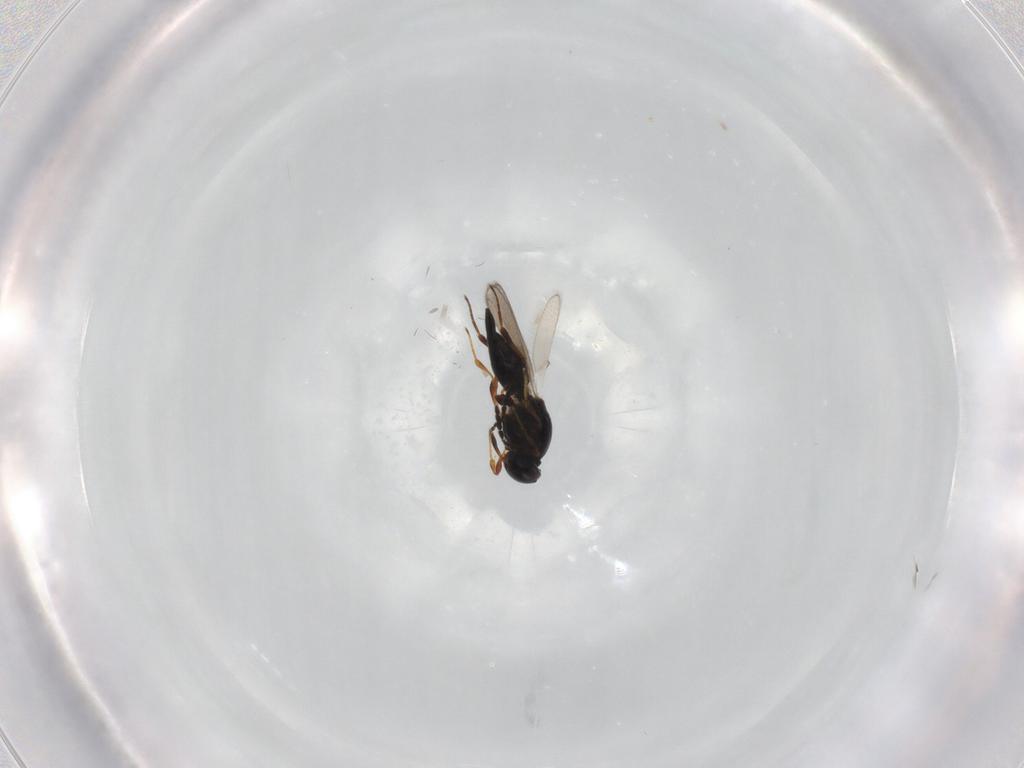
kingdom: Animalia
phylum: Arthropoda
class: Insecta
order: Hymenoptera
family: Platygastridae
